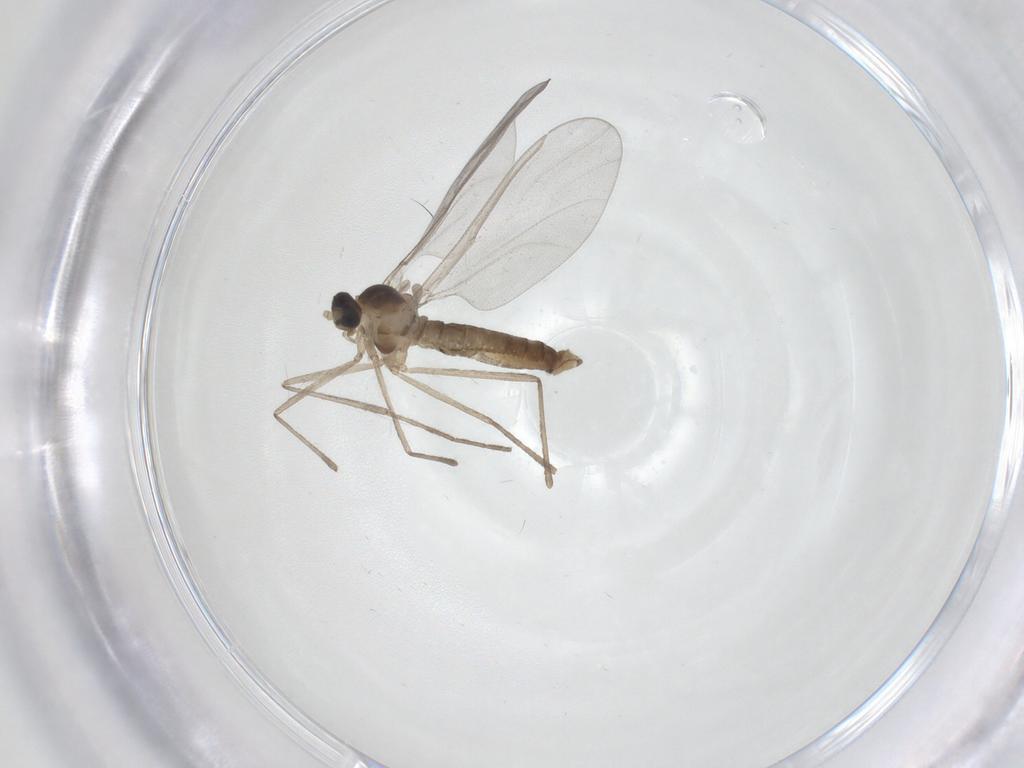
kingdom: Animalia
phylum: Arthropoda
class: Insecta
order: Diptera
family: Cecidomyiidae
